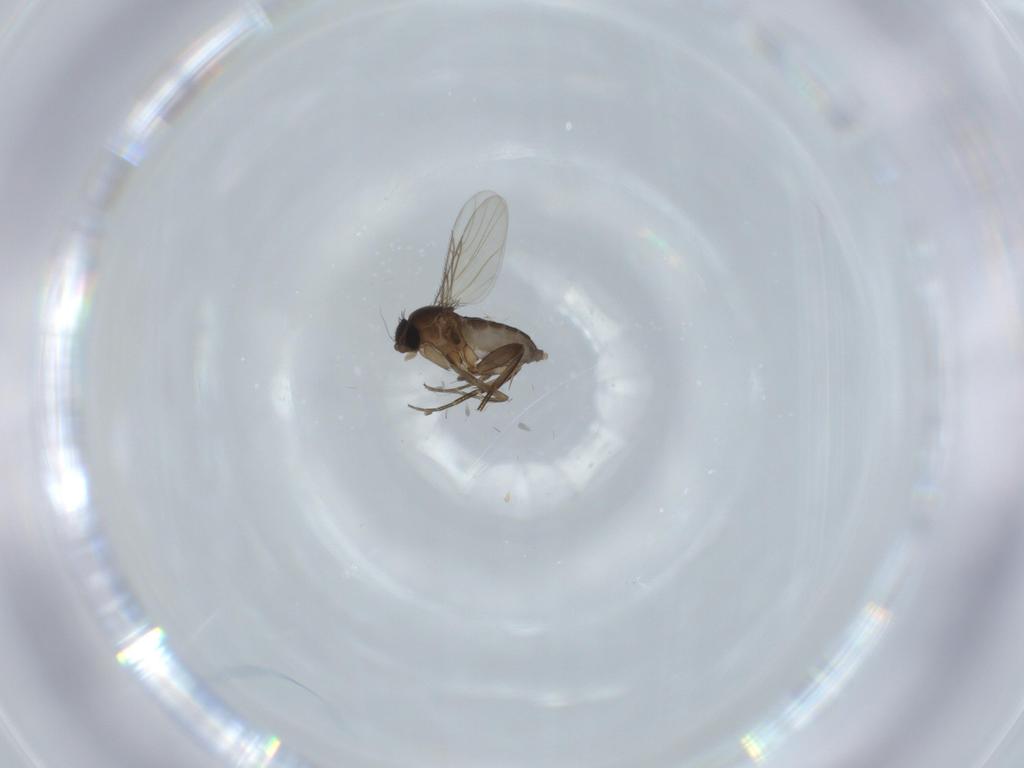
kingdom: Animalia
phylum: Arthropoda
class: Insecta
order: Diptera
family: Phoridae
